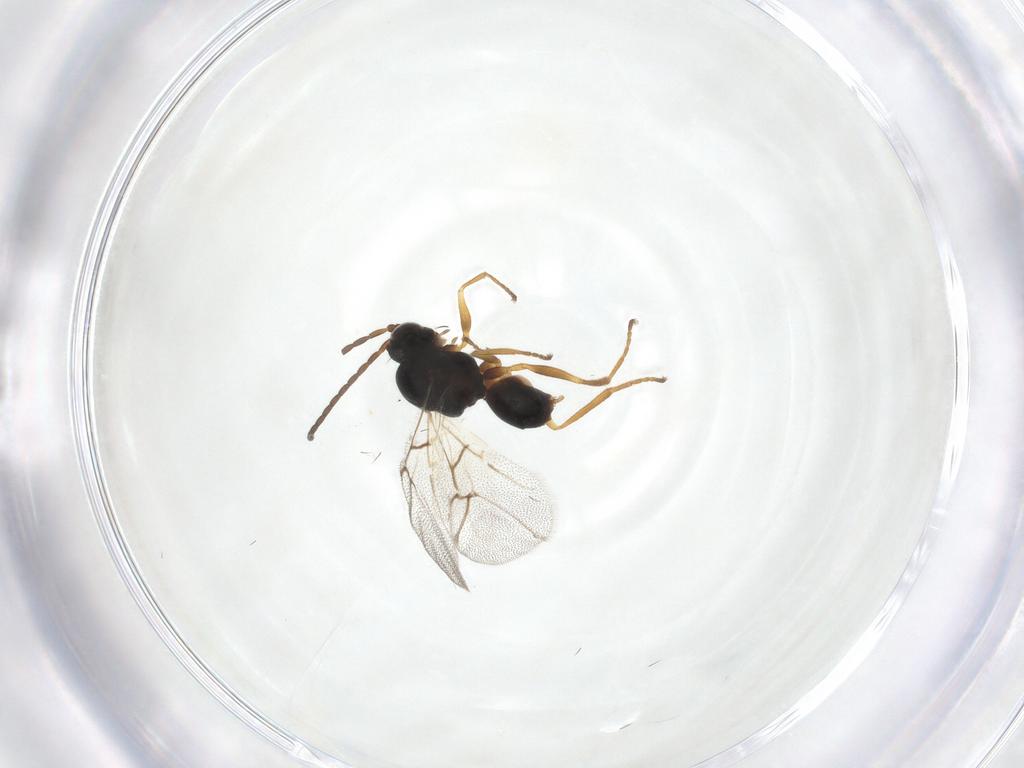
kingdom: Animalia
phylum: Arthropoda
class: Insecta
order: Hymenoptera
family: Cynipidae
